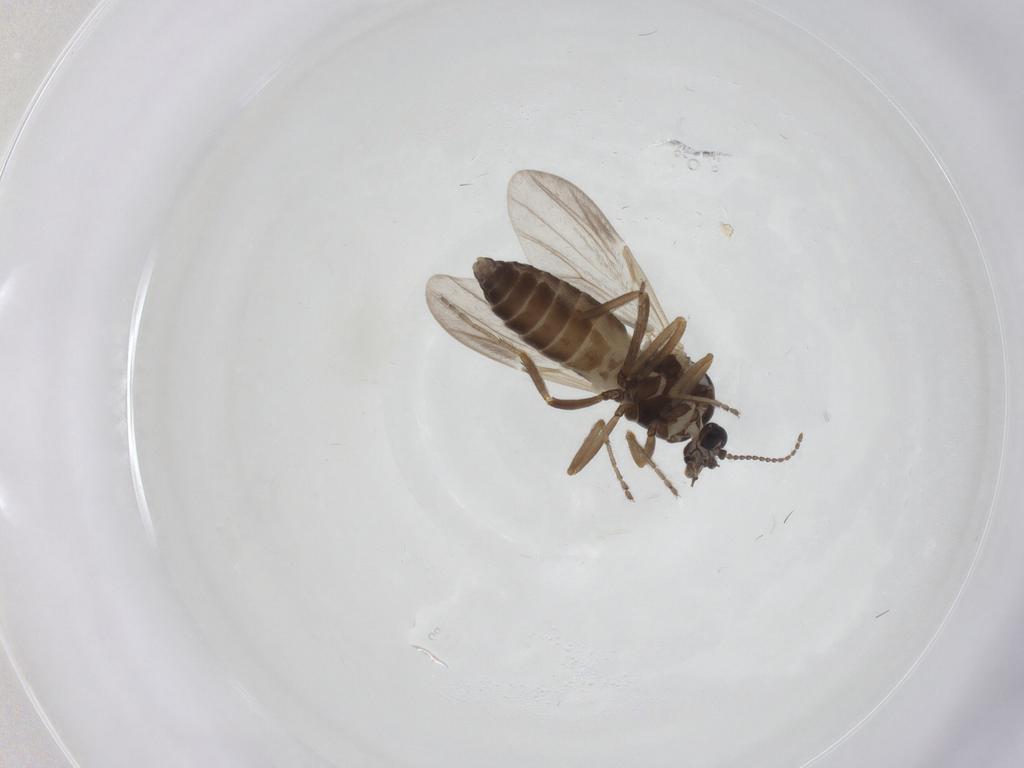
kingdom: Animalia
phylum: Arthropoda
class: Insecta
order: Diptera
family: Ceratopogonidae
